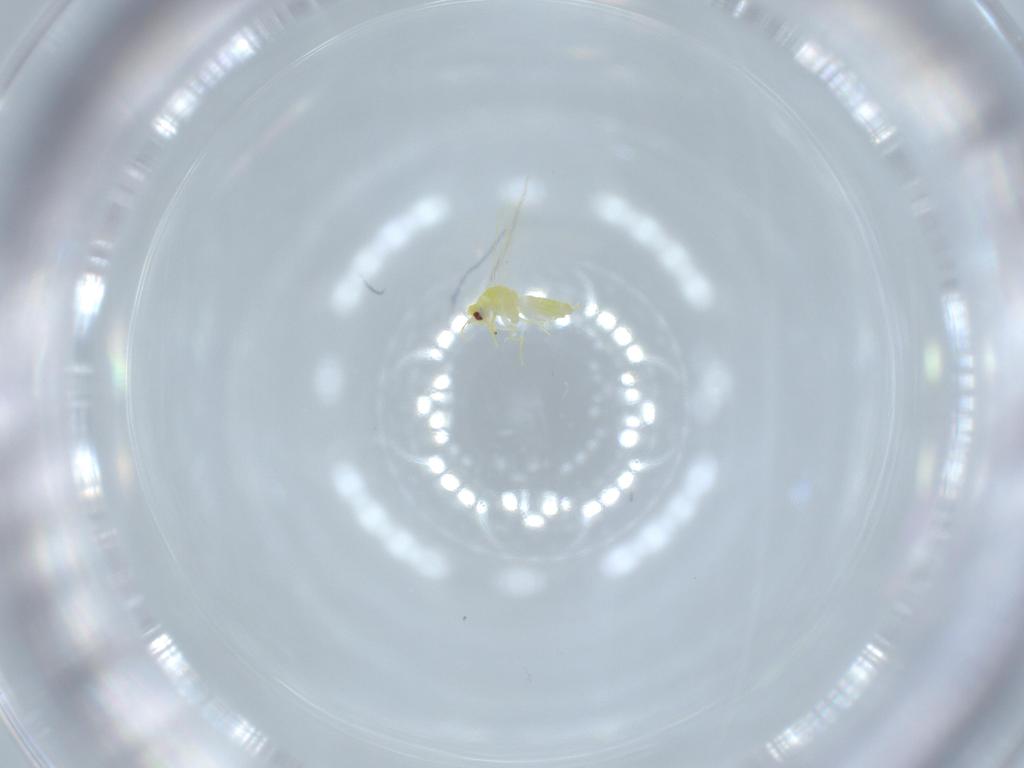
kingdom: Animalia
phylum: Arthropoda
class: Insecta
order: Hemiptera
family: Aleyrodidae
